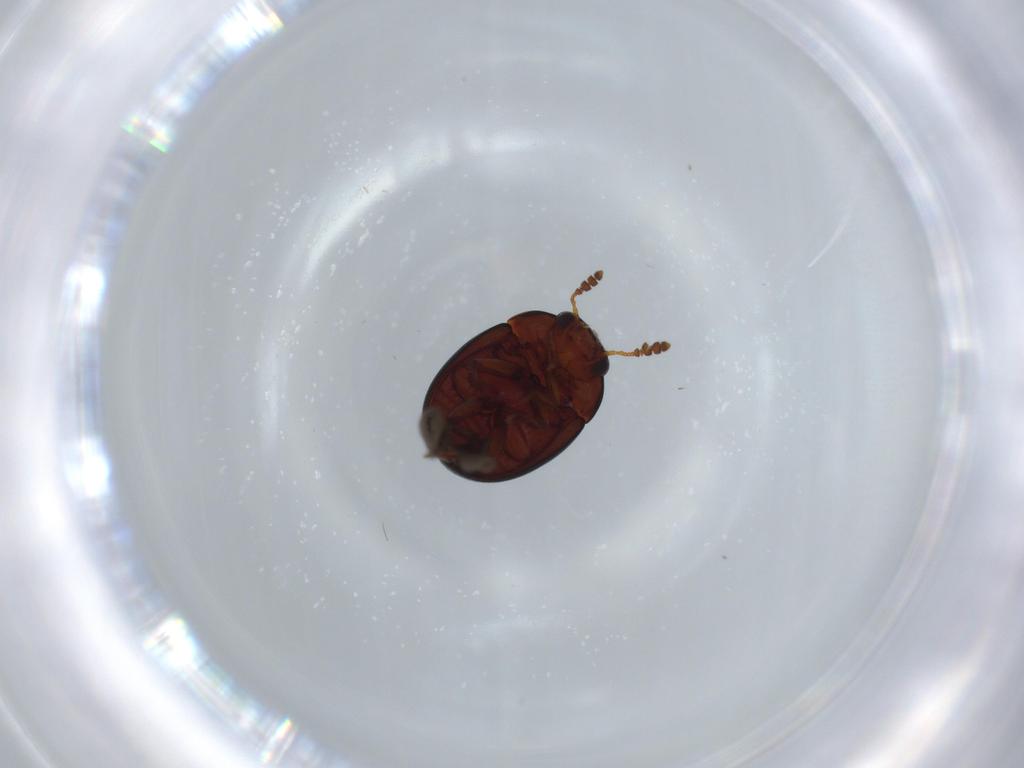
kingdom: Animalia
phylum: Arthropoda
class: Insecta
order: Coleoptera
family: Leiodidae
